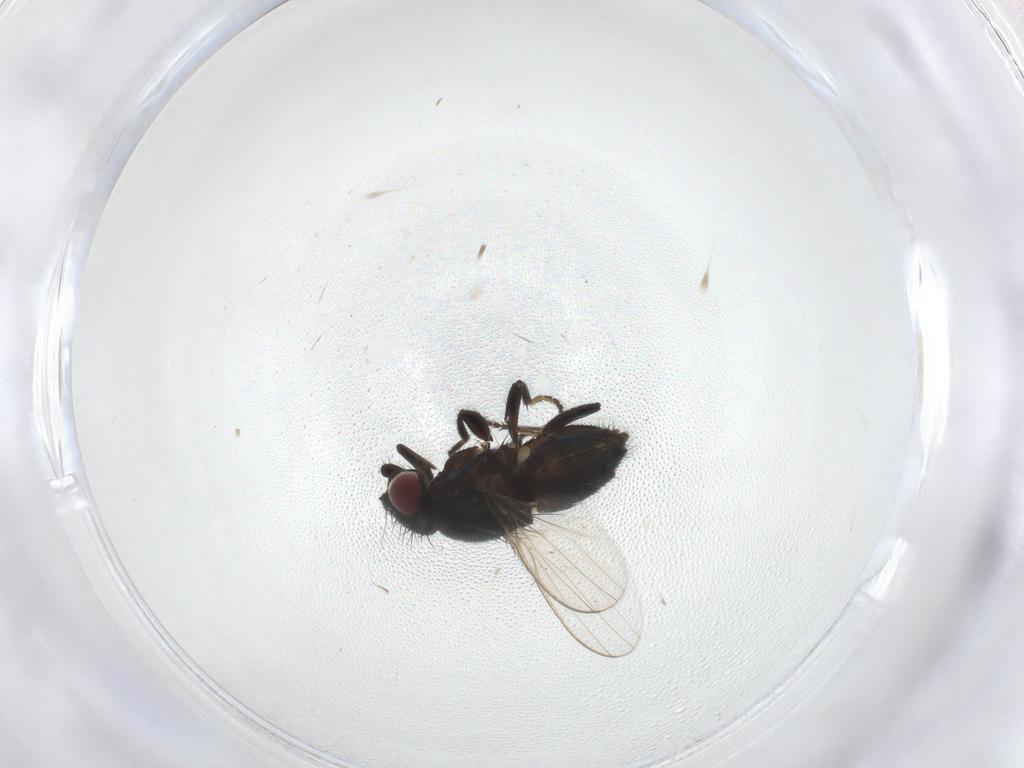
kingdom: Animalia
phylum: Arthropoda
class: Insecta
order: Diptera
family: Milichiidae
